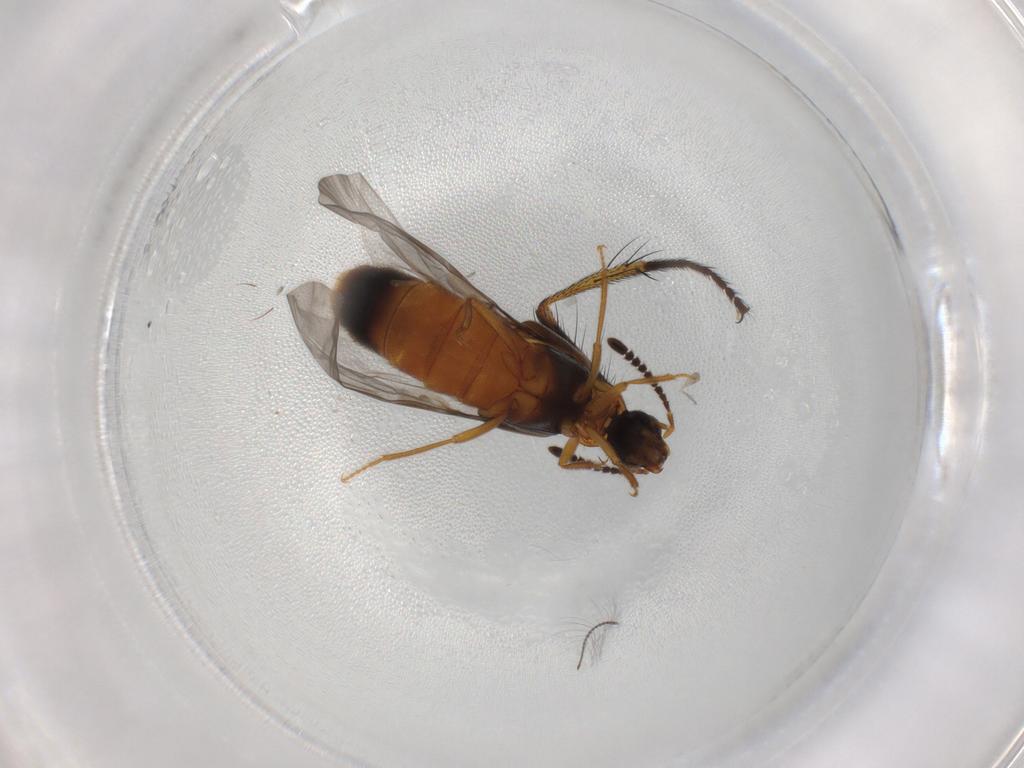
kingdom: Animalia
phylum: Arthropoda
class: Insecta
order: Coleoptera
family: Staphylinidae
